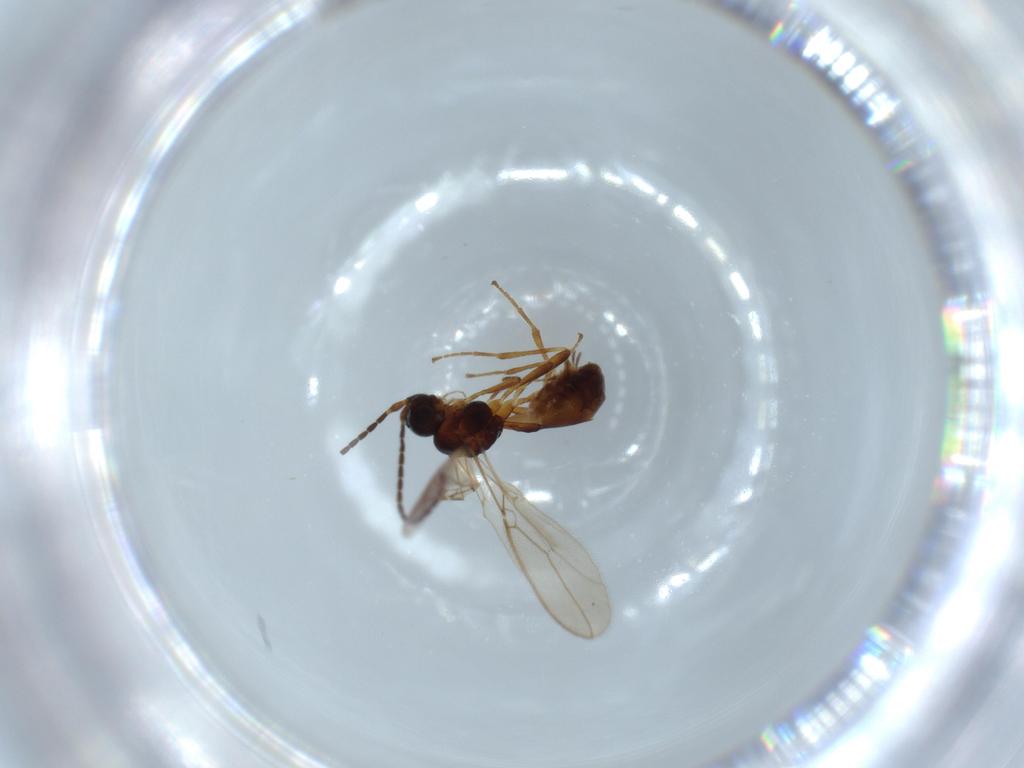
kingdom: Animalia
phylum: Arthropoda
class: Insecta
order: Hymenoptera
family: Braconidae
